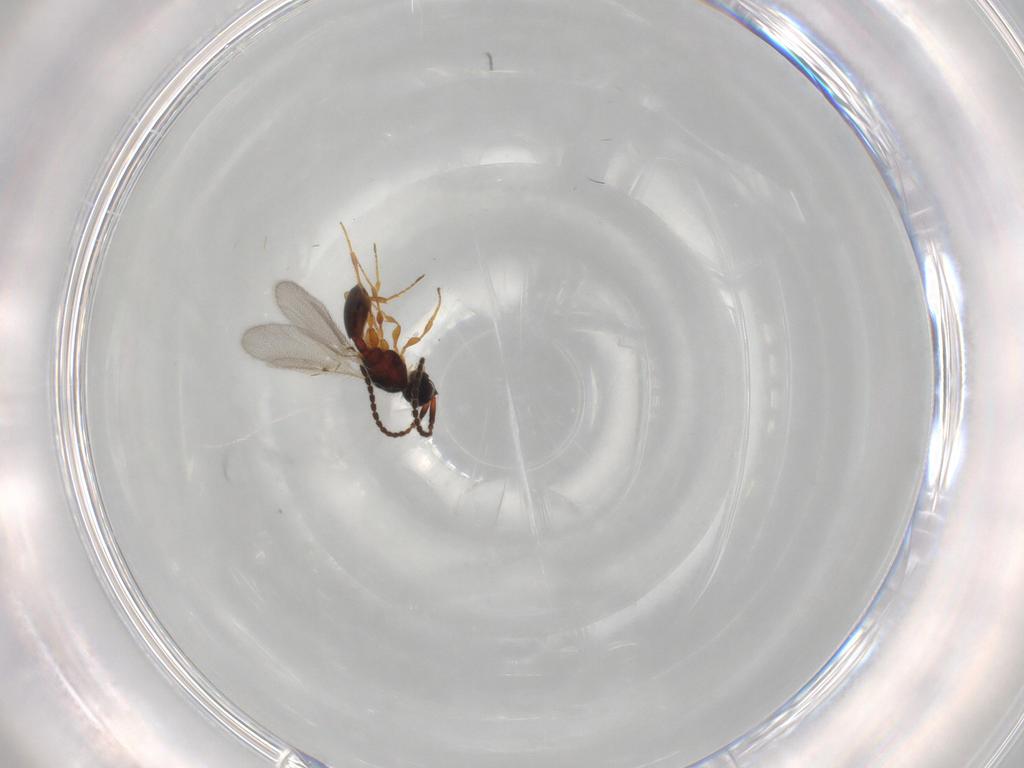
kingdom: Animalia
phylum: Arthropoda
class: Insecta
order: Hymenoptera
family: Diapriidae
